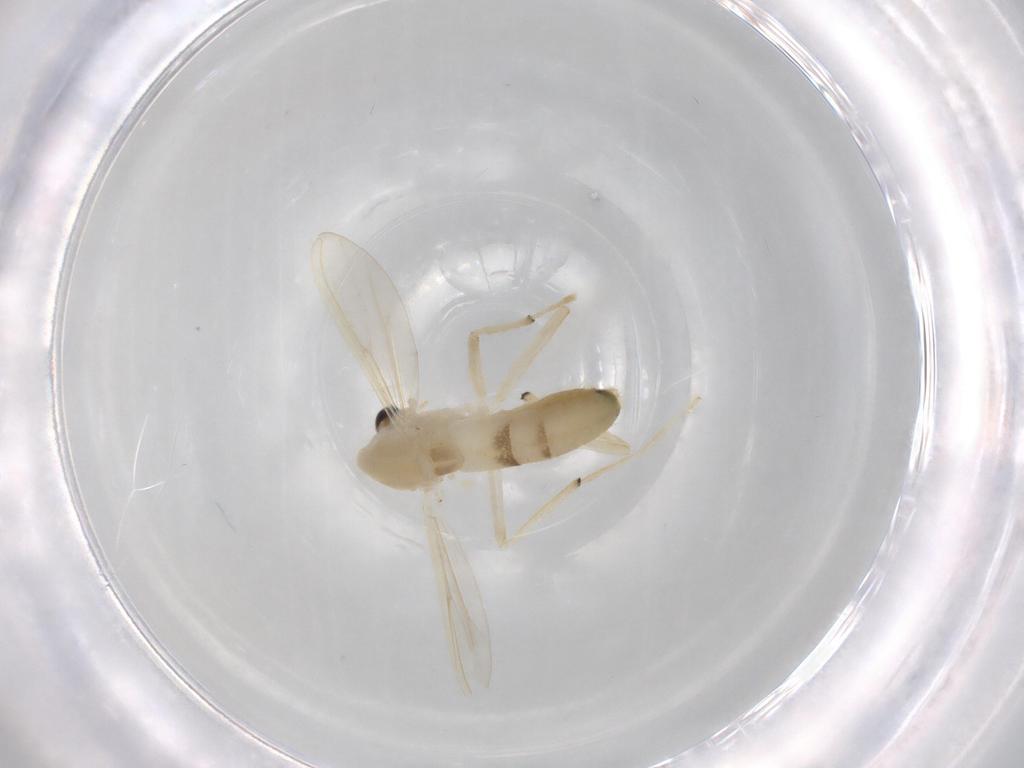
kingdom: Animalia
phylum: Arthropoda
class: Insecta
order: Diptera
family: Chironomidae
